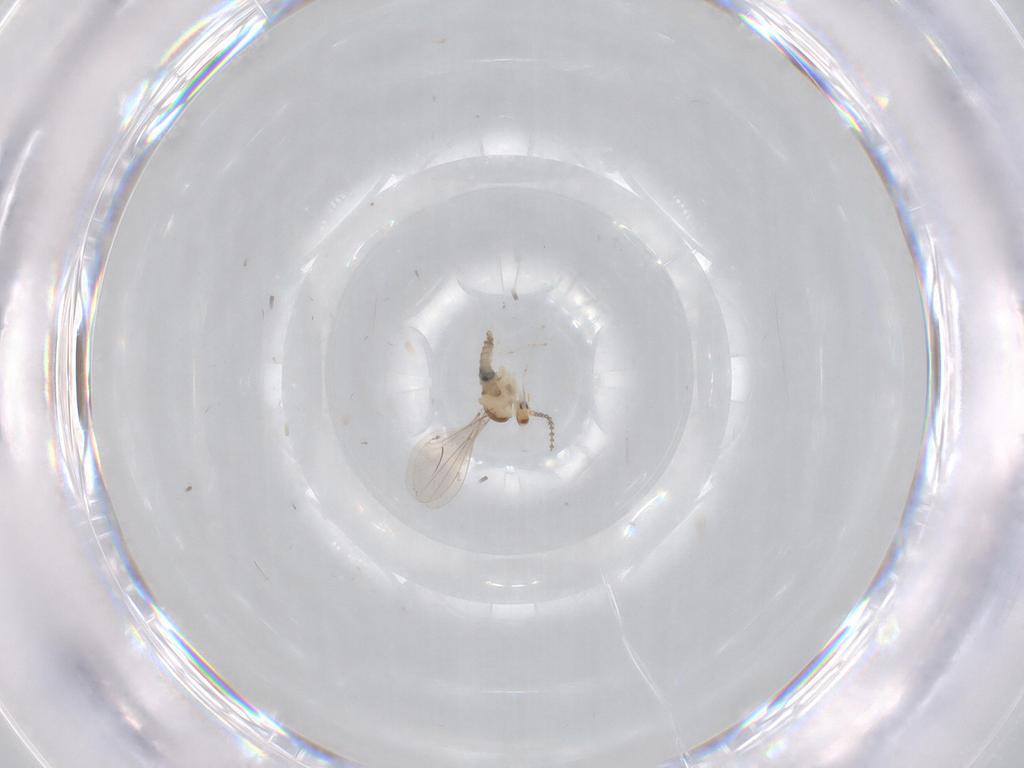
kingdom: Animalia
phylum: Arthropoda
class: Insecta
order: Diptera
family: Cecidomyiidae
